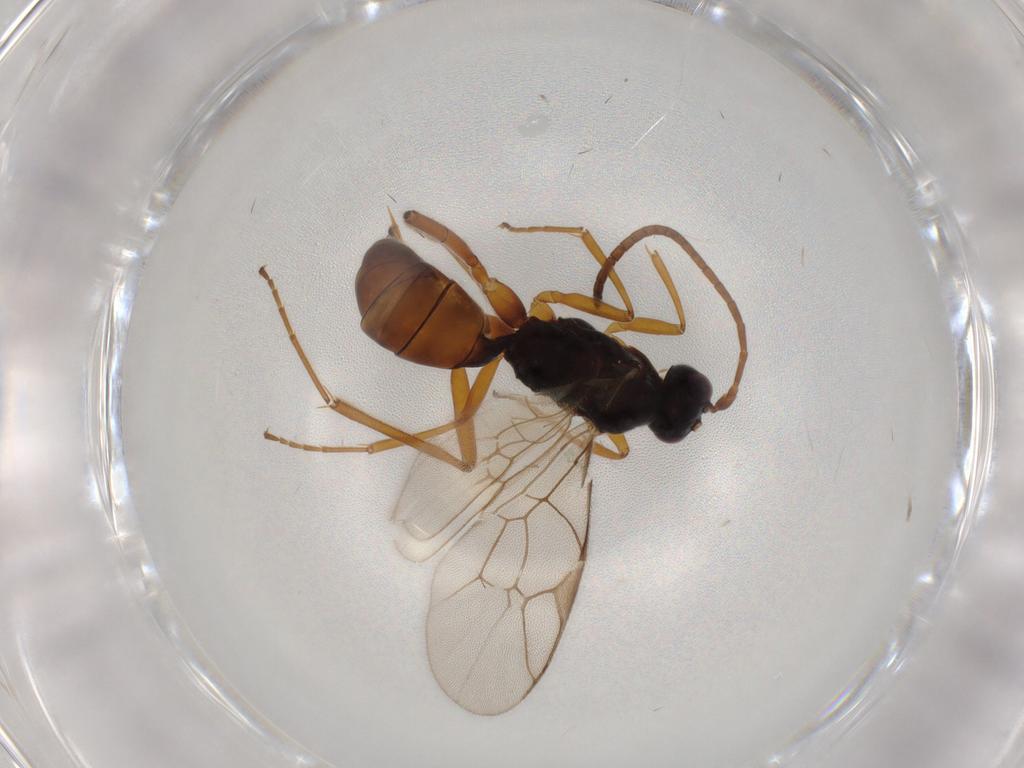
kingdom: Animalia
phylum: Arthropoda
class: Insecta
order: Hymenoptera
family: Ichneumonidae
